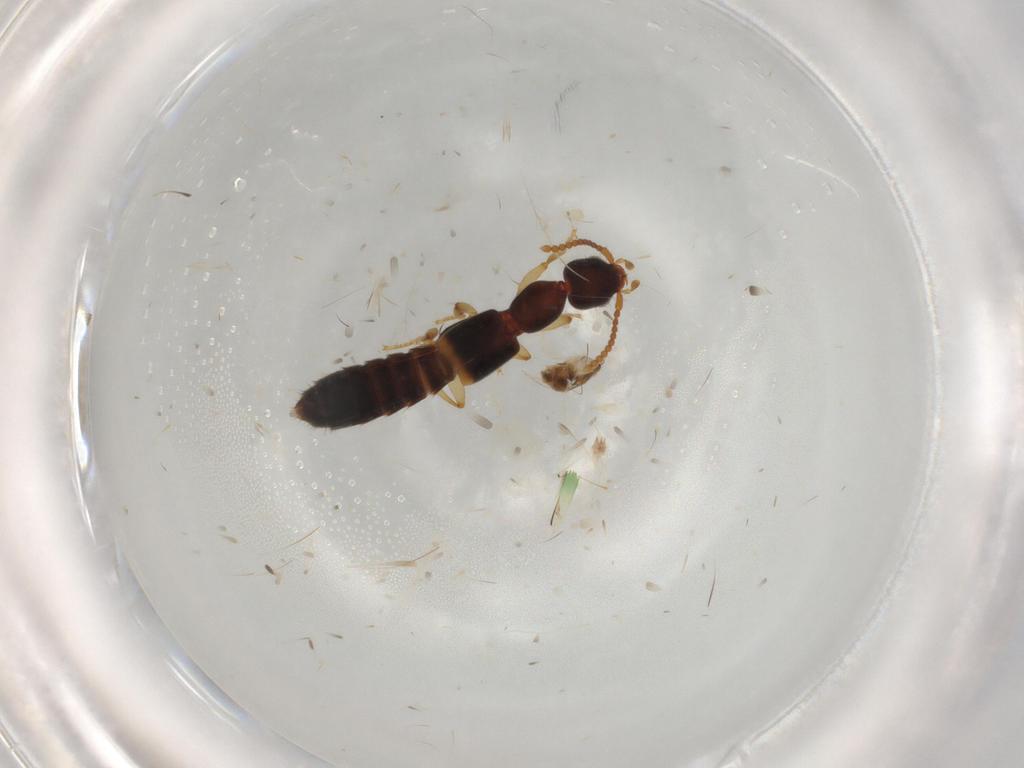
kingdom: Animalia
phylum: Arthropoda
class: Insecta
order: Coleoptera
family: Staphylinidae
